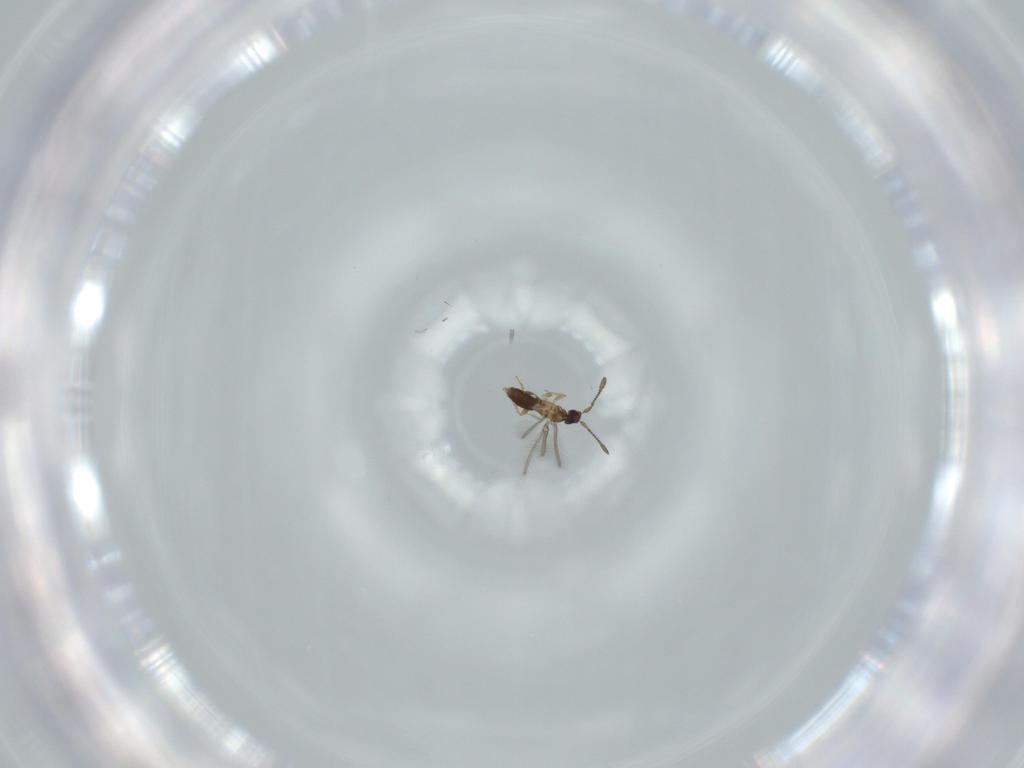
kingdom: Animalia
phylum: Arthropoda
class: Insecta
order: Hymenoptera
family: Mymaridae
